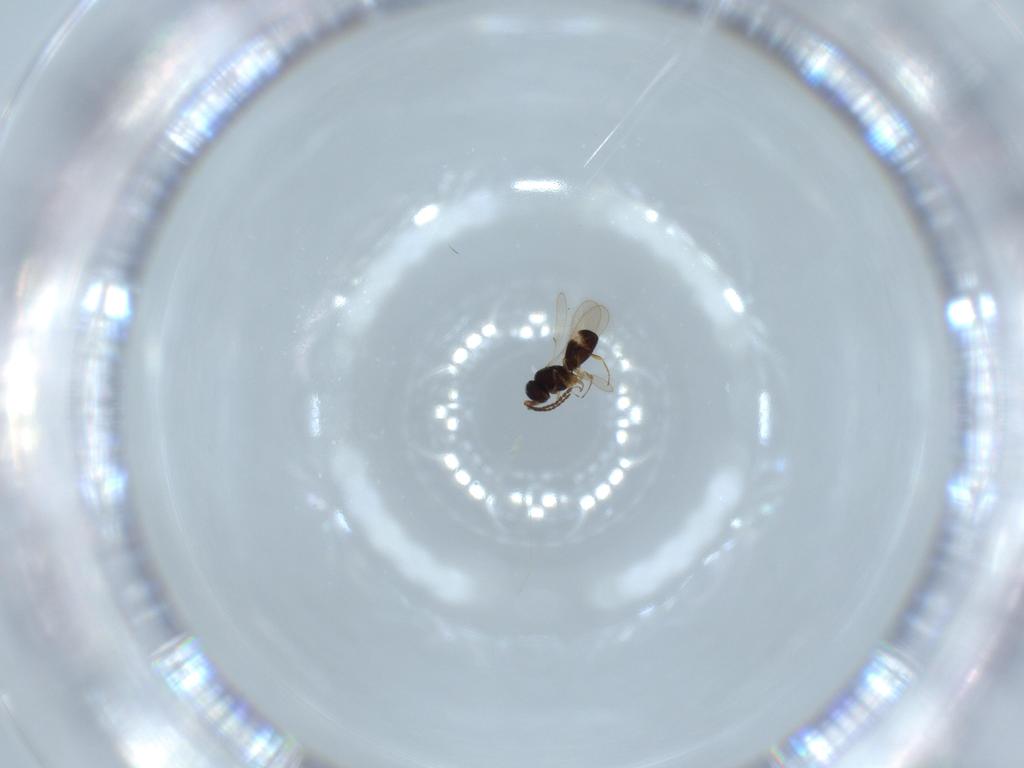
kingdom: Animalia
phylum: Arthropoda
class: Insecta
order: Hymenoptera
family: Scelionidae
